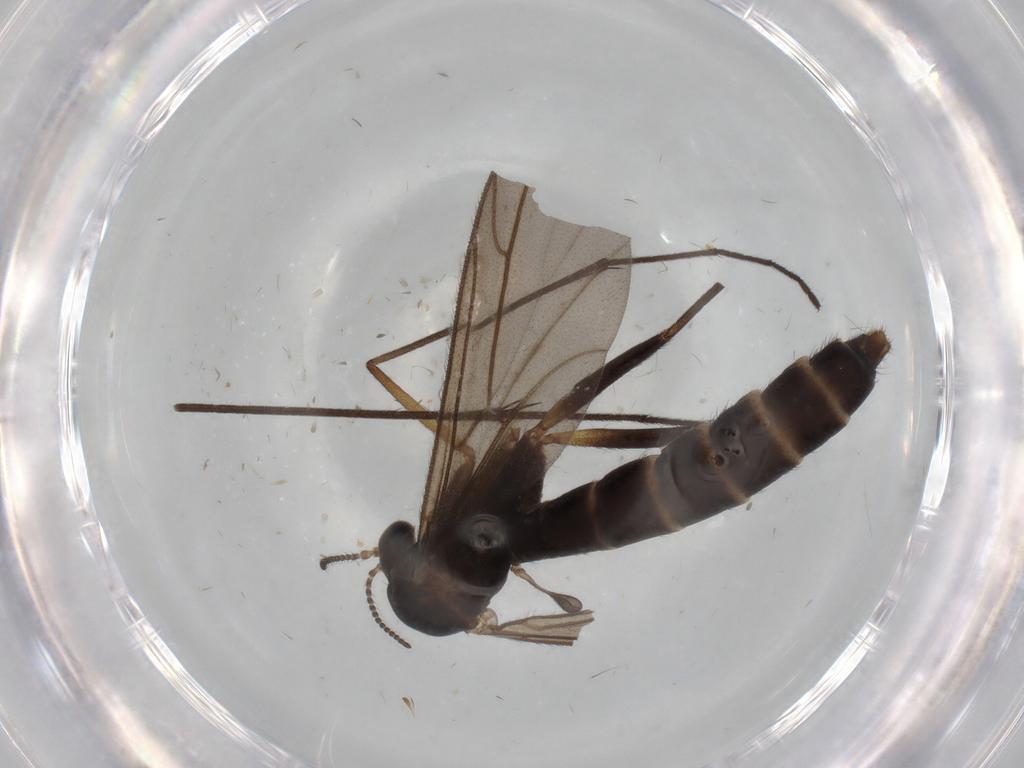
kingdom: Animalia
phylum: Arthropoda
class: Insecta
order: Diptera
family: Ditomyiidae
